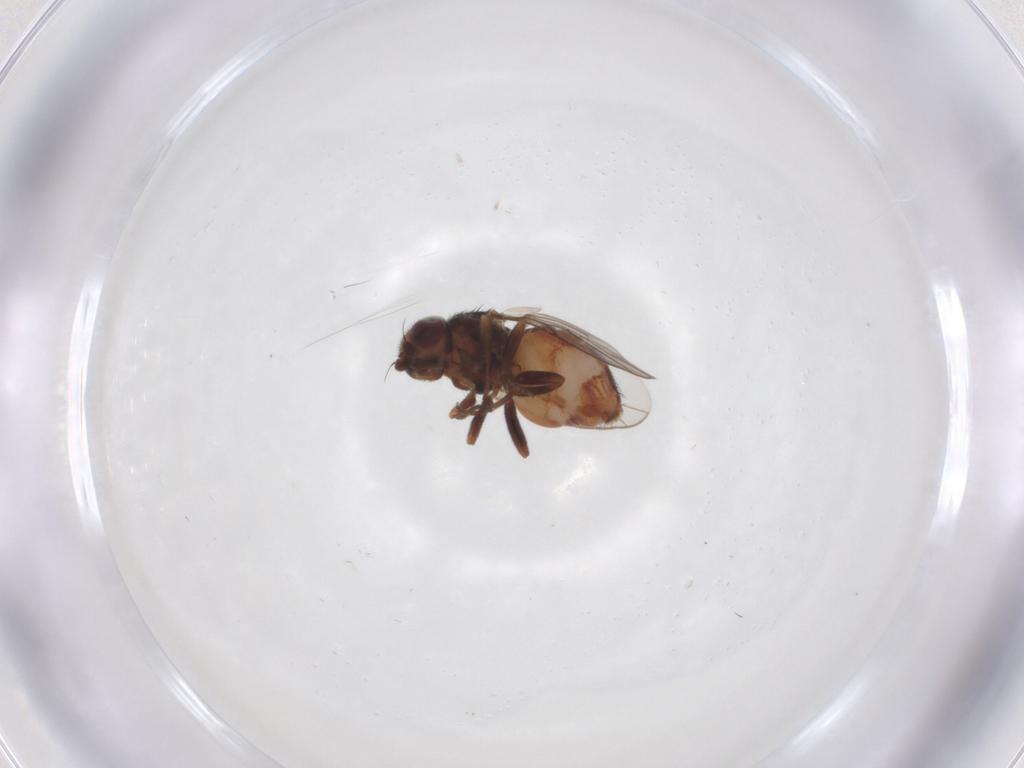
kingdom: Animalia
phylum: Arthropoda
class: Insecta
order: Diptera
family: Chloropidae
